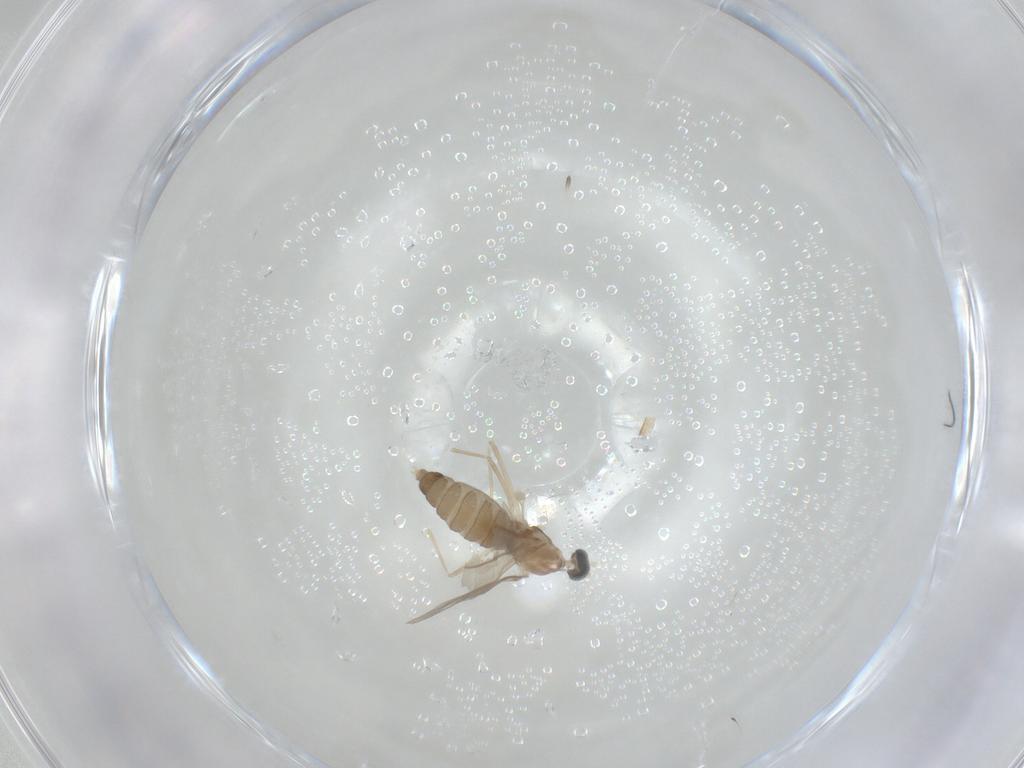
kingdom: Animalia
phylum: Arthropoda
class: Insecta
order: Diptera
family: Cecidomyiidae
